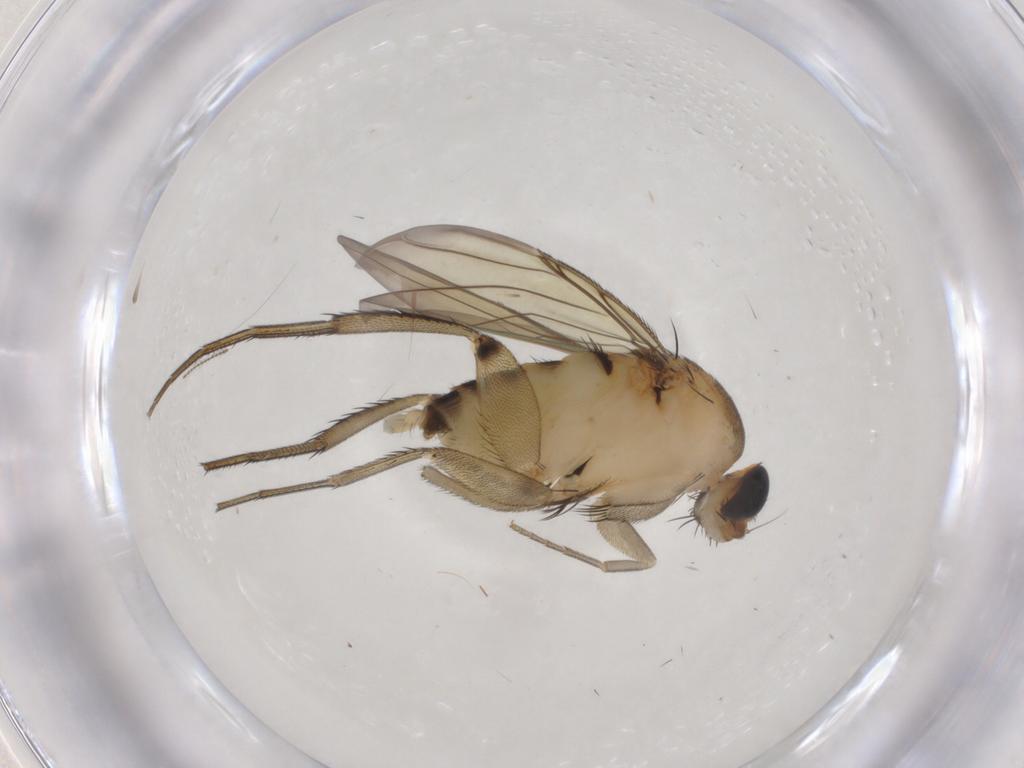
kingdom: Animalia
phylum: Arthropoda
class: Insecta
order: Diptera
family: Phoridae
